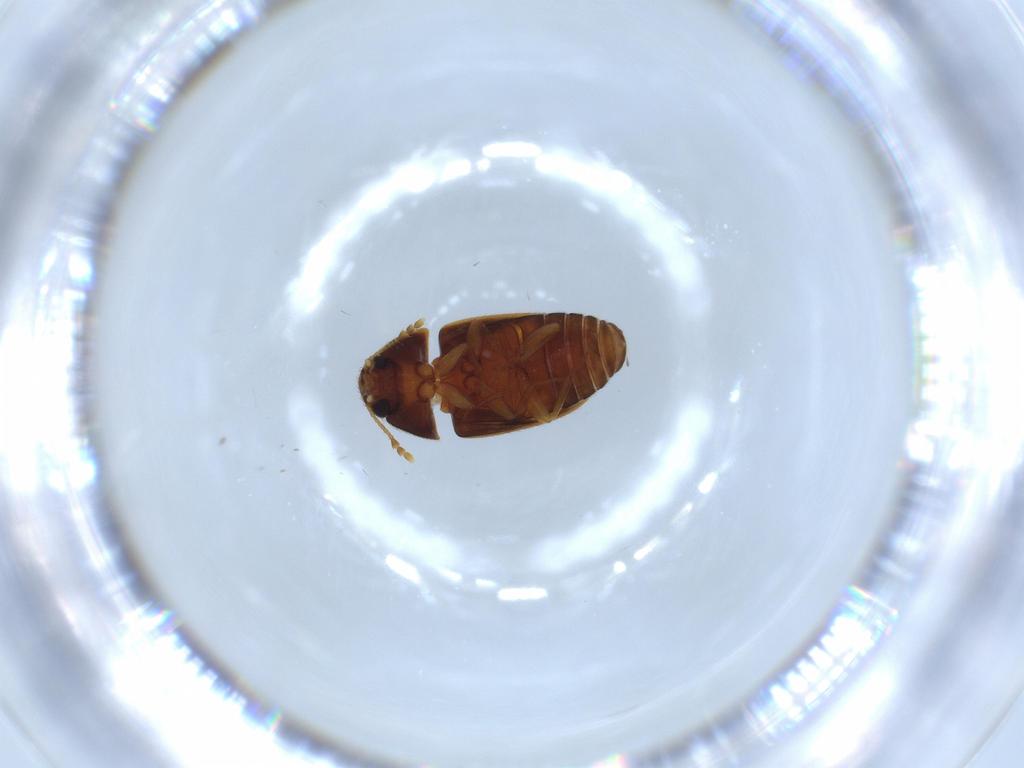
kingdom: Animalia
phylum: Arthropoda
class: Insecta
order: Coleoptera
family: Mycetophagidae
